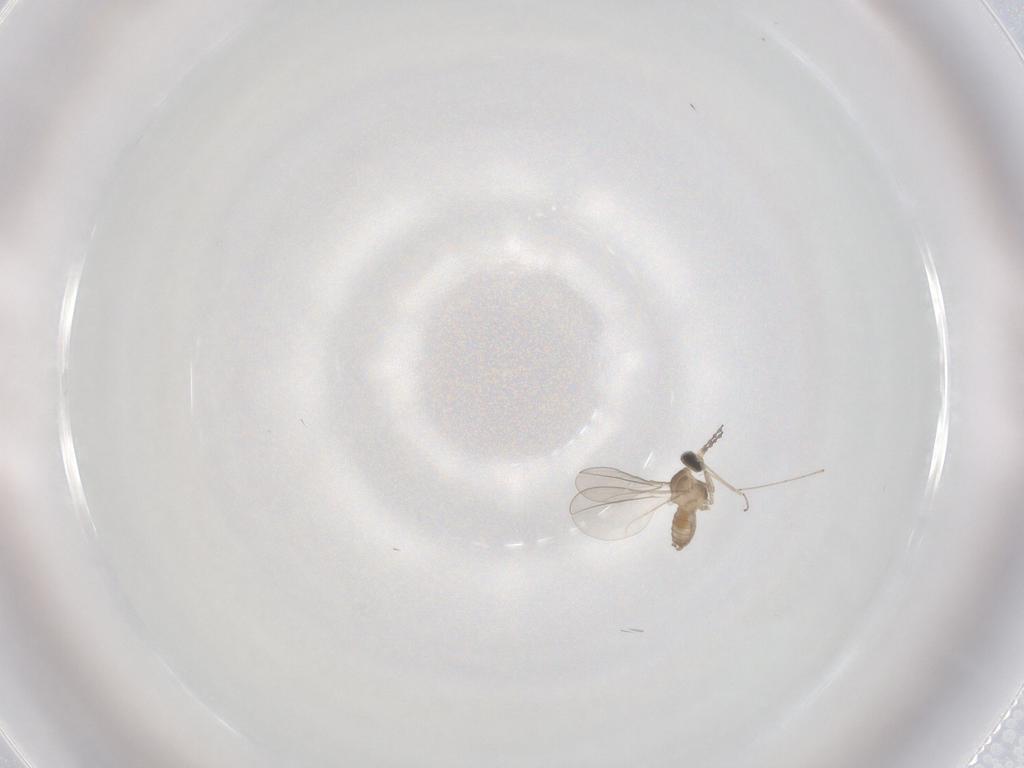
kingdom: Animalia
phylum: Arthropoda
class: Insecta
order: Diptera
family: Cecidomyiidae
